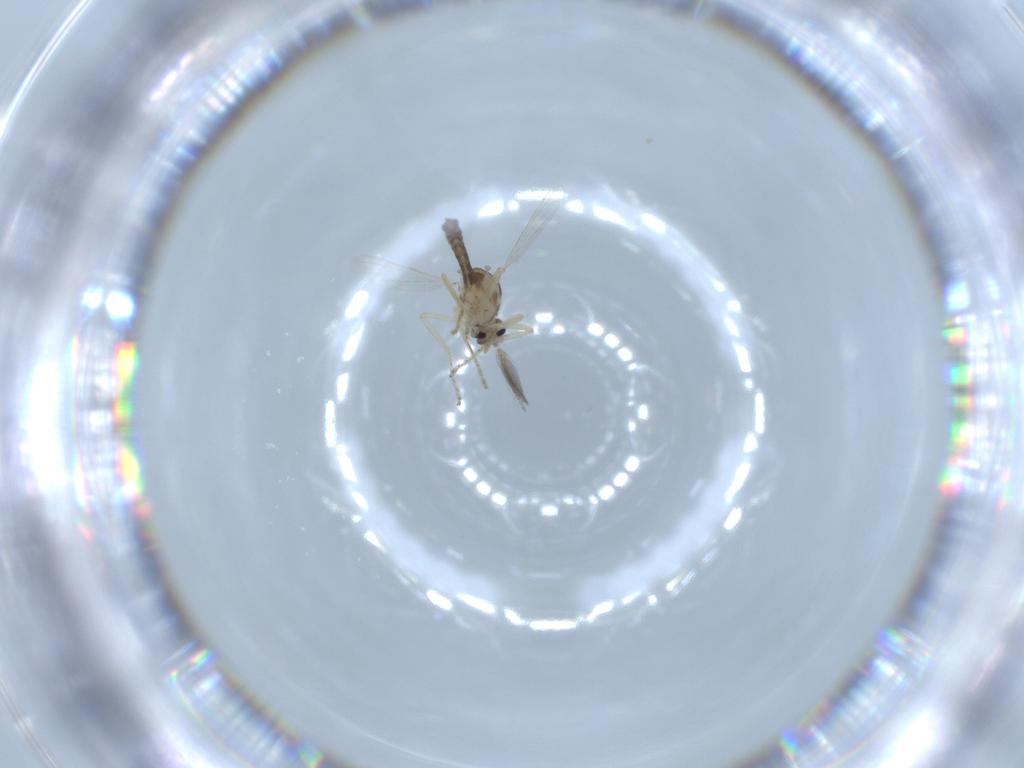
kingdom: Animalia
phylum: Arthropoda
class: Insecta
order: Diptera
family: Ceratopogonidae
